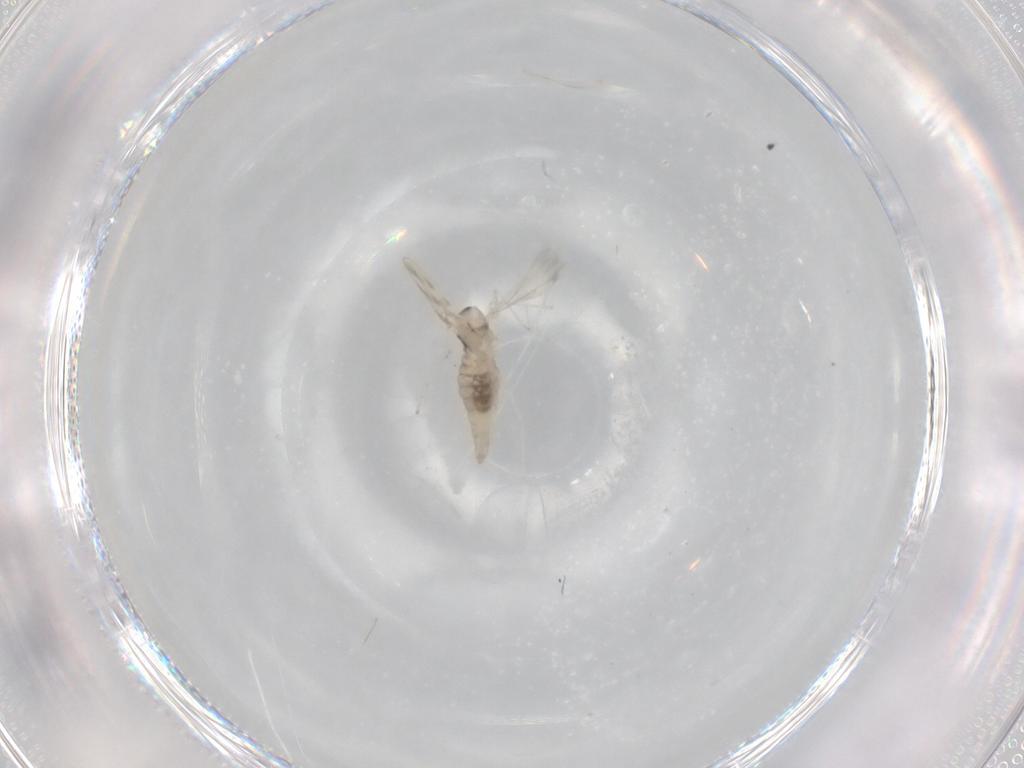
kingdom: Animalia
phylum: Arthropoda
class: Insecta
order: Diptera
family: Cecidomyiidae
